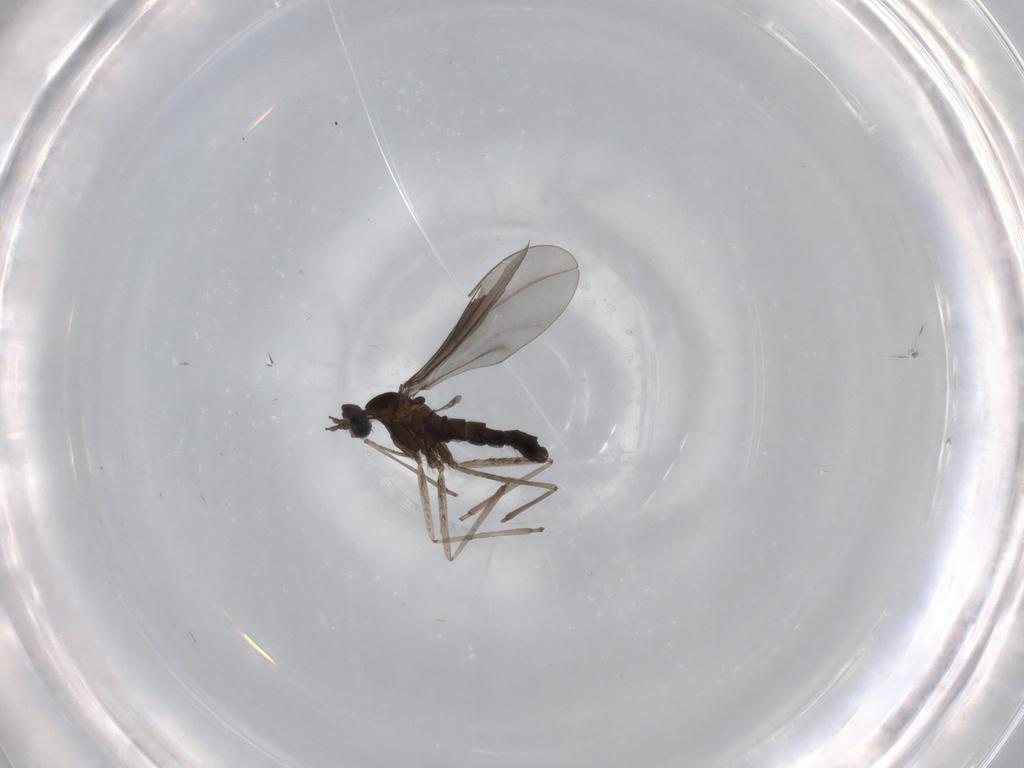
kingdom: Animalia
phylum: Arthropoda
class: Insecta
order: Diptera
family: Cecidomyiidae
